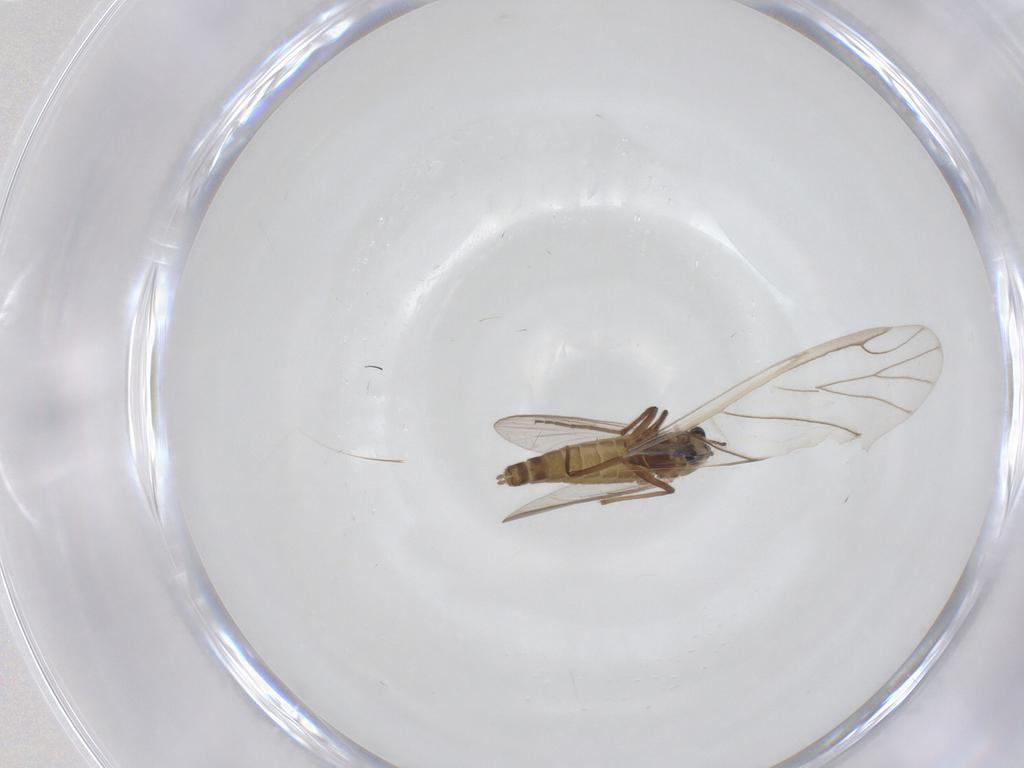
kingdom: Animalia
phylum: Arthropoda
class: Insecta
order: Diptera
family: Chironomidae
